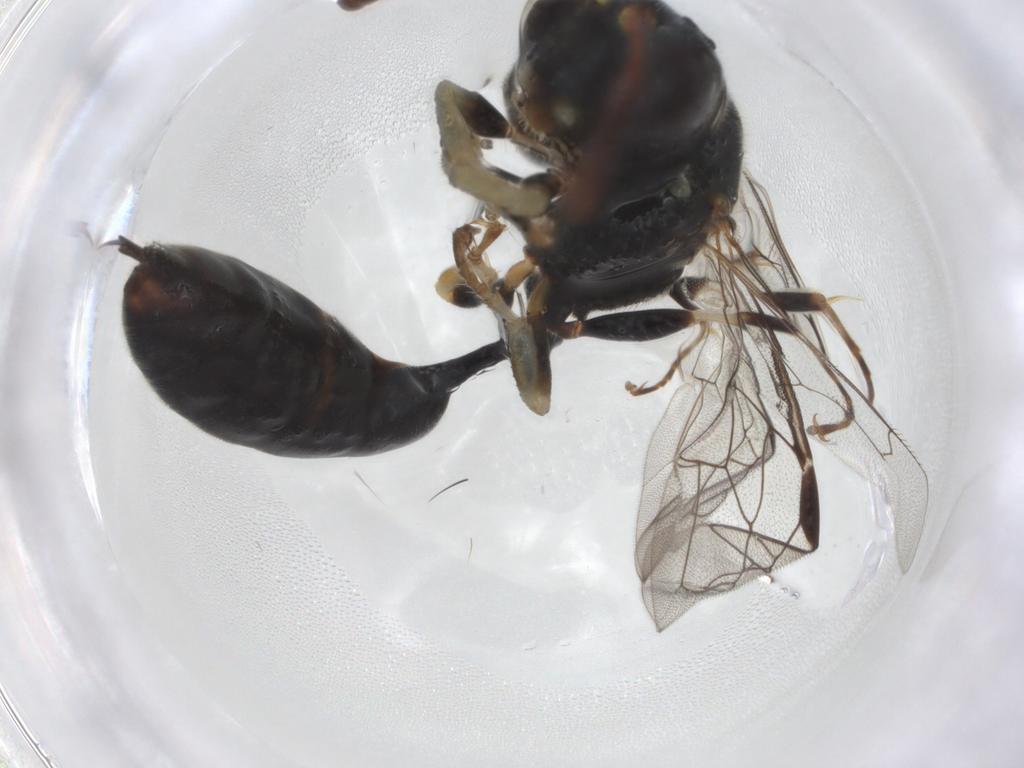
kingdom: Animalia
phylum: Arthropoda
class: Insecta
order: Hymenoptera
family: Crabronidae
